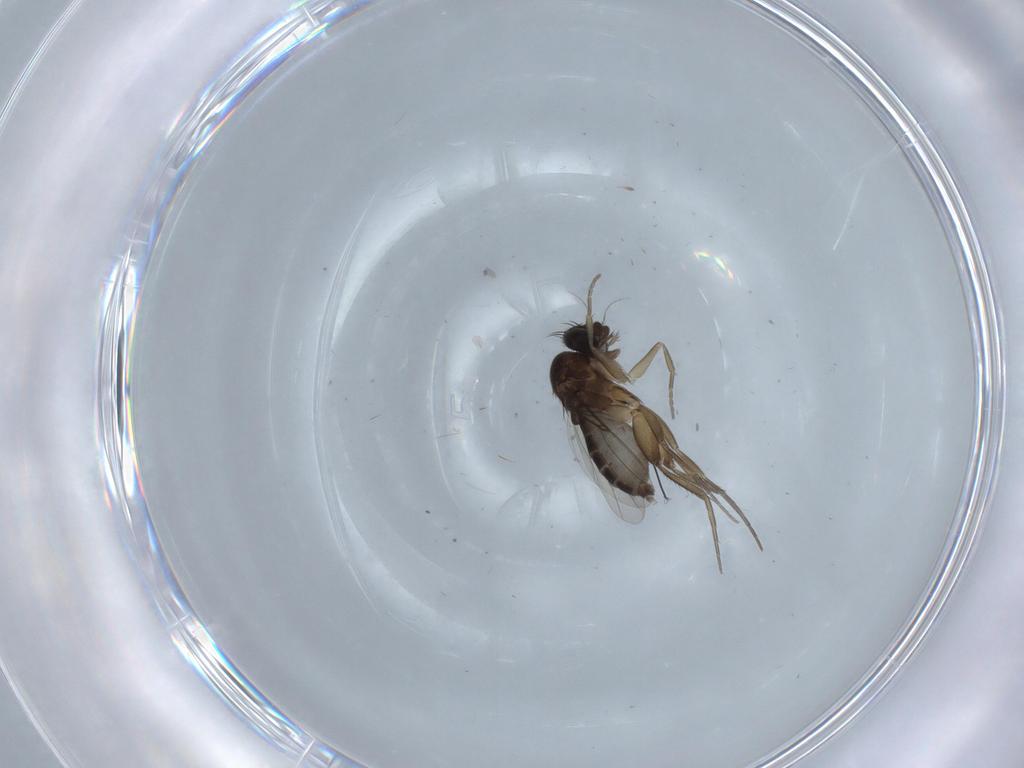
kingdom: Animalia
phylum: Arthropoda
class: Insecta
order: Diptera
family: Phoridae
